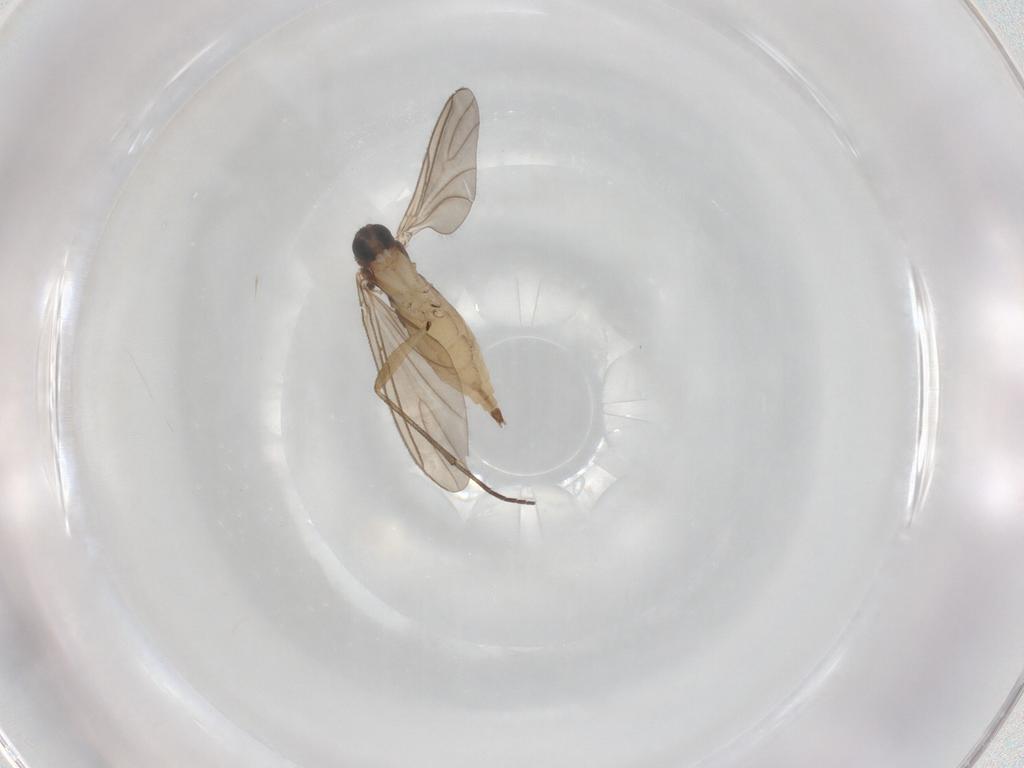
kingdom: Animalia
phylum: Arthropoda
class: Insecta
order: Diptera
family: Sciaridae
